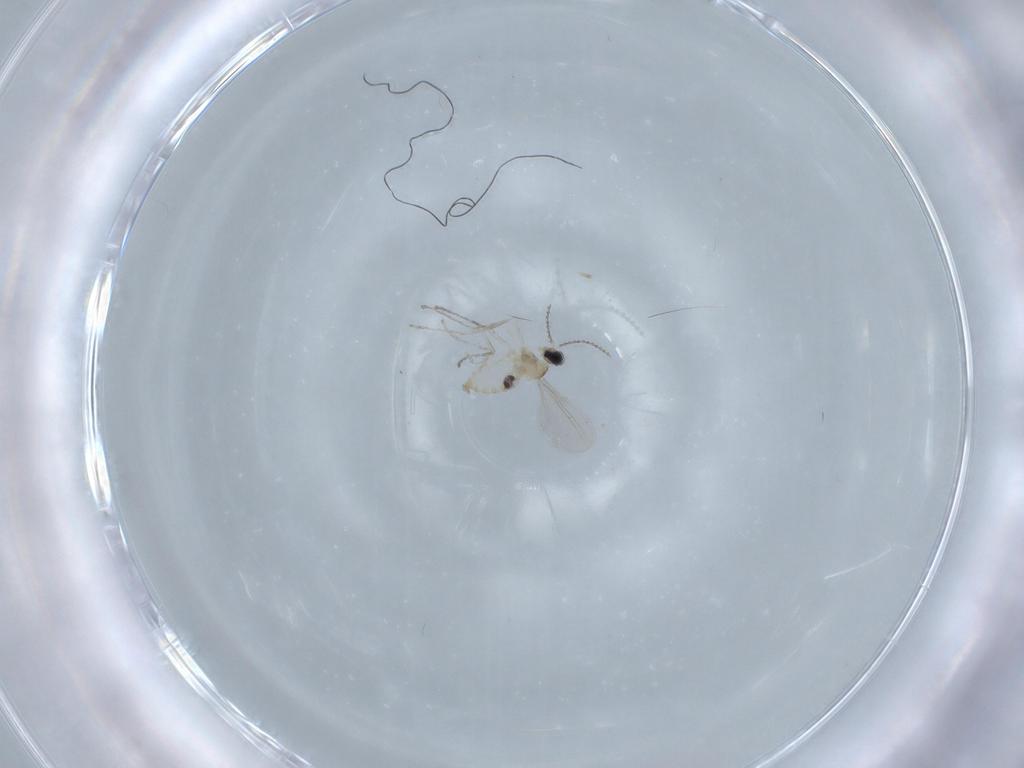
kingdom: Animalia
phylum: Arthropoda
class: Insecta
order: Diptera
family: Cecidomyiidae
